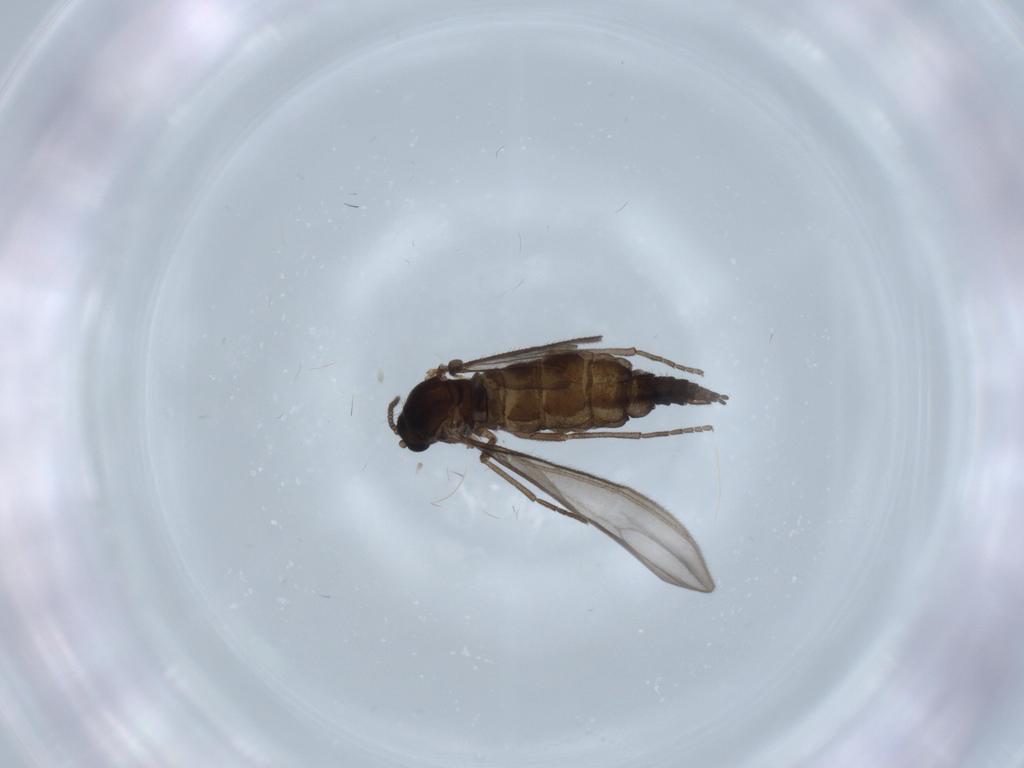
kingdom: Animalia
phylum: Arthropoda
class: Insecta
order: Diptera
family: Sciaridae
